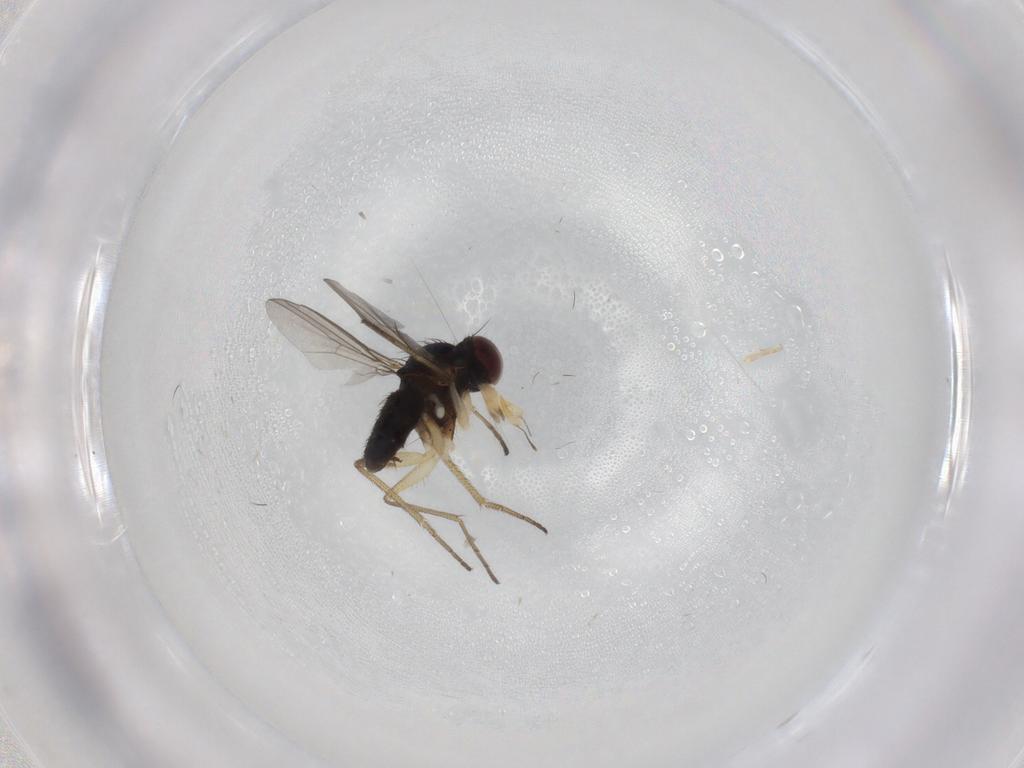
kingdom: Animalia
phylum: Arthropoda
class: Insecta
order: Diptera
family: Dolichopodidae
